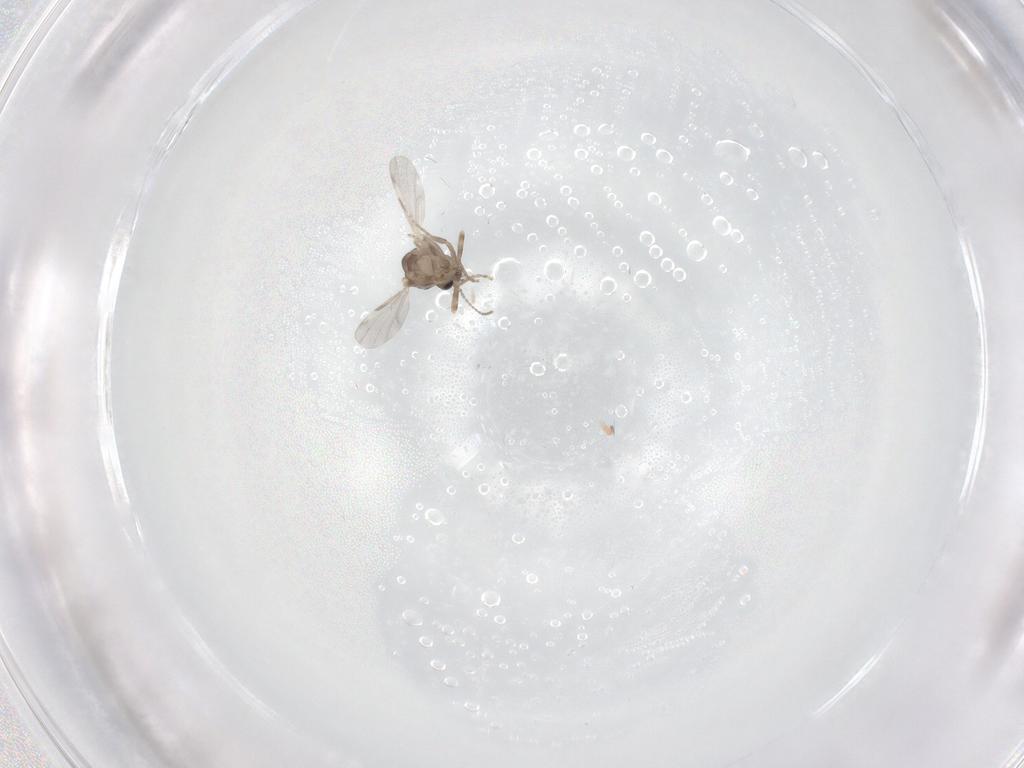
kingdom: Animalia
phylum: Arthropoda
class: Insecta
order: Diptera
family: Ceratopogonidae
